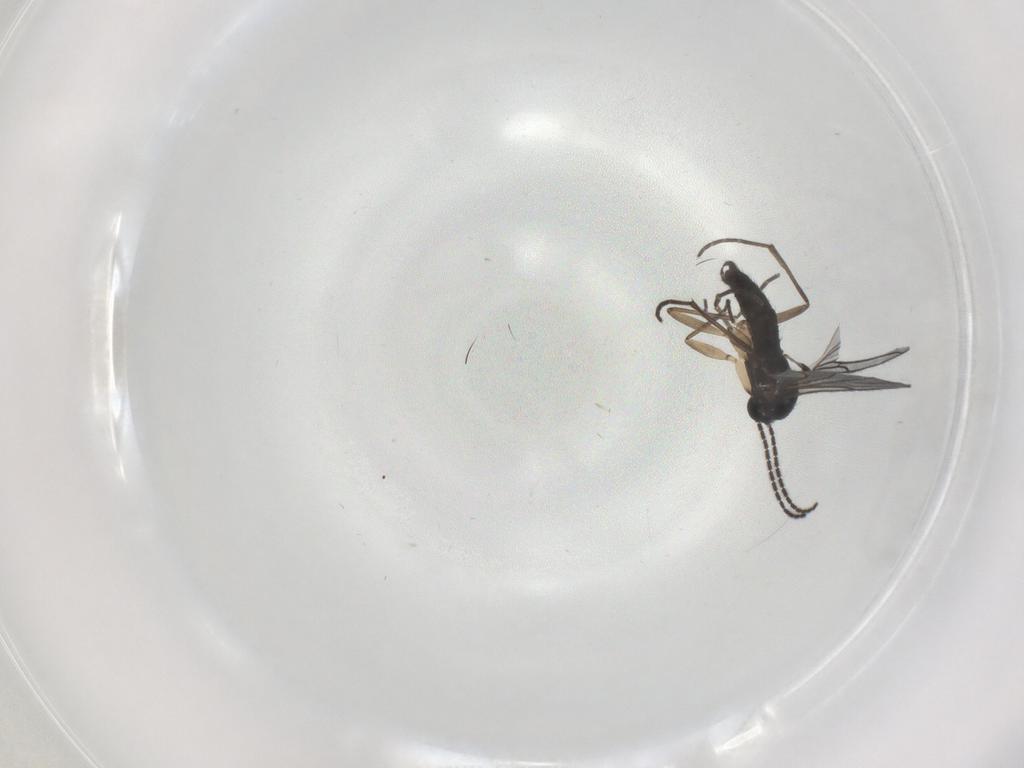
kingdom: Animalia
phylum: Arthropoda
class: Insecta
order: Diptera
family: Sciaridae
